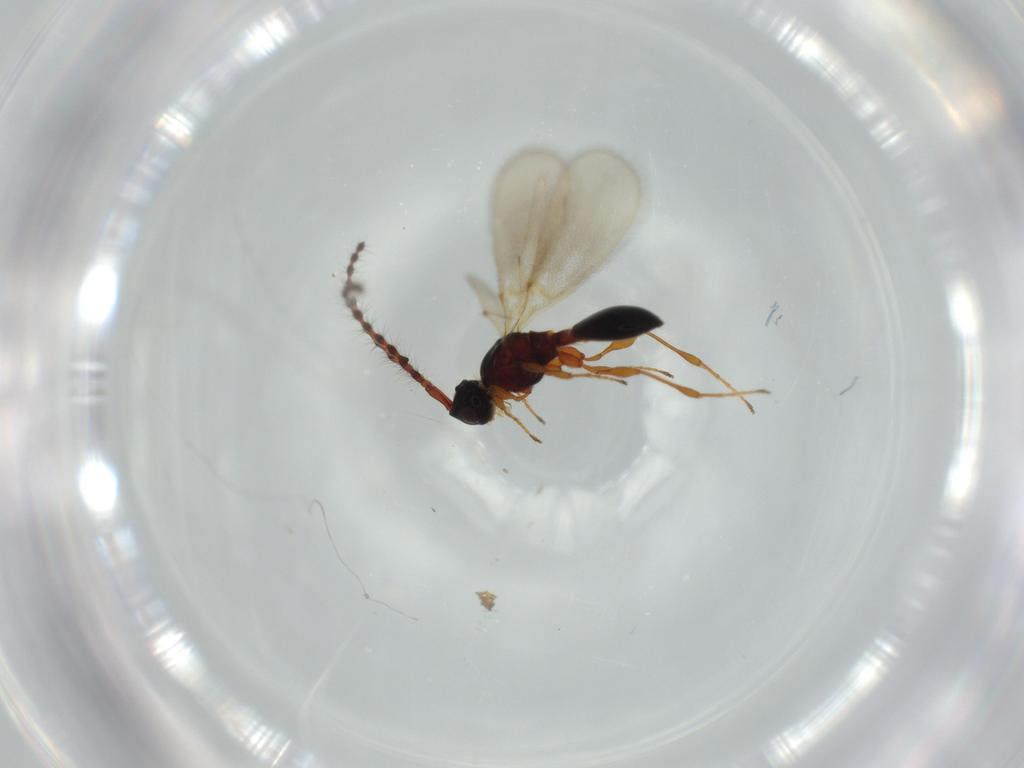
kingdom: Animalia
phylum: Arthropoda
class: Insecta
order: Hymenoptera
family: Diapriidae
